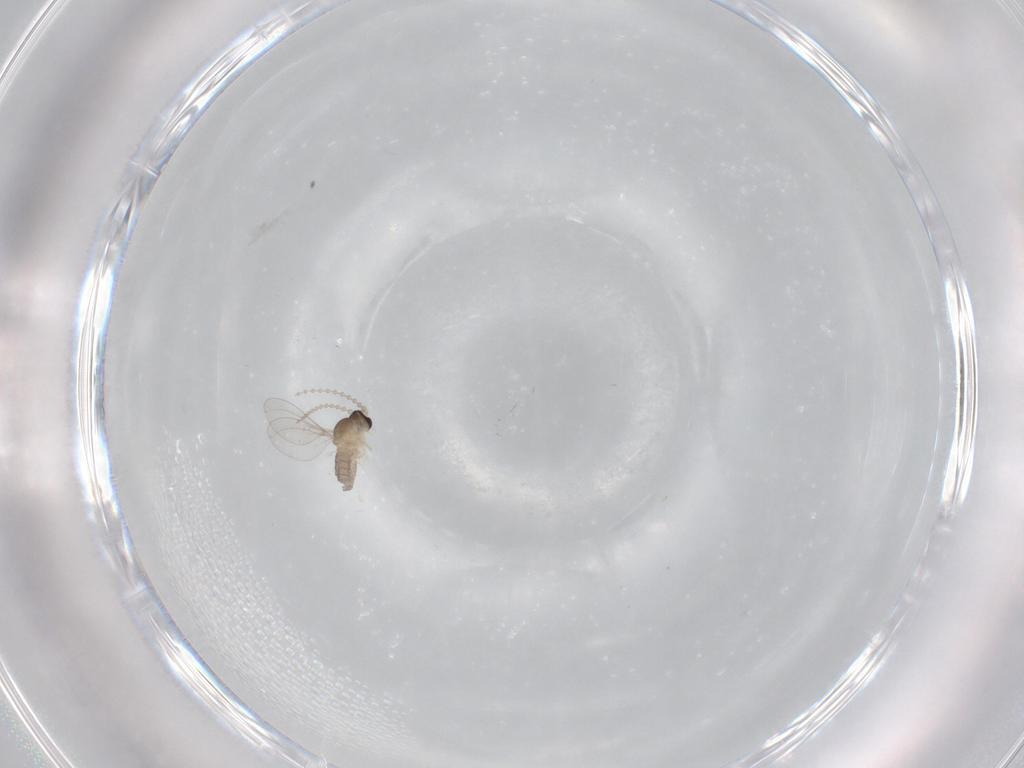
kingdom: Animalia
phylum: Arthropoda
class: Insecta
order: Diptera
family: Cecidomyiidae
